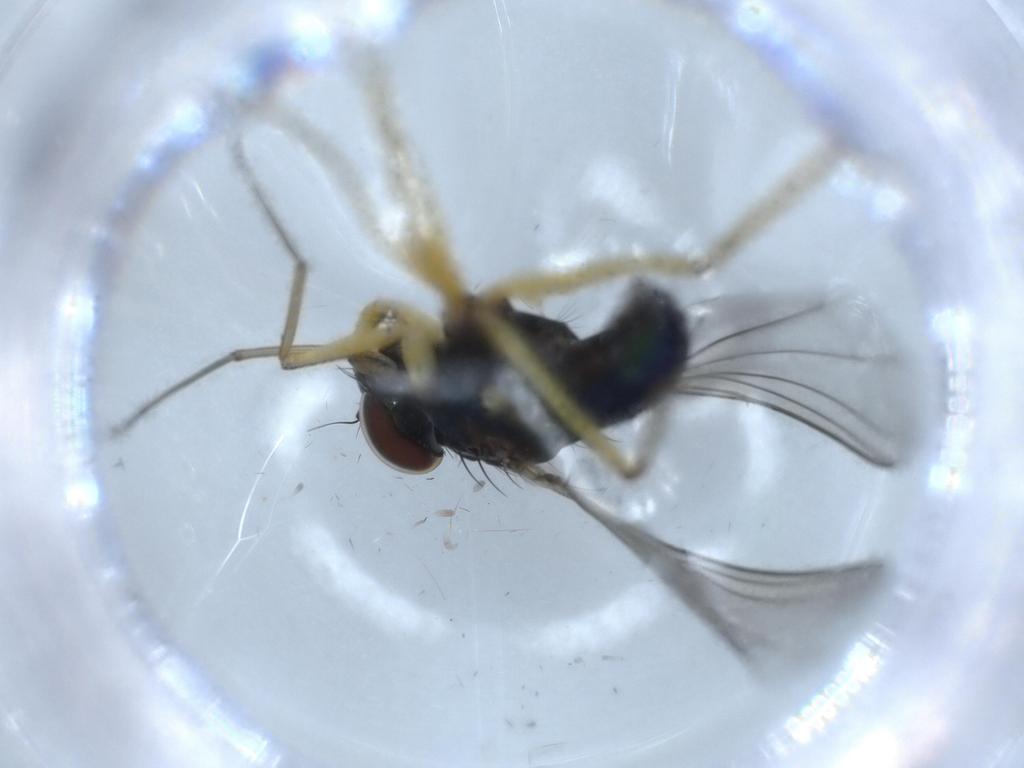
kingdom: Animalia
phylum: Arthropoda
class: Insecta
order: Diptera
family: Dolichopodidae
